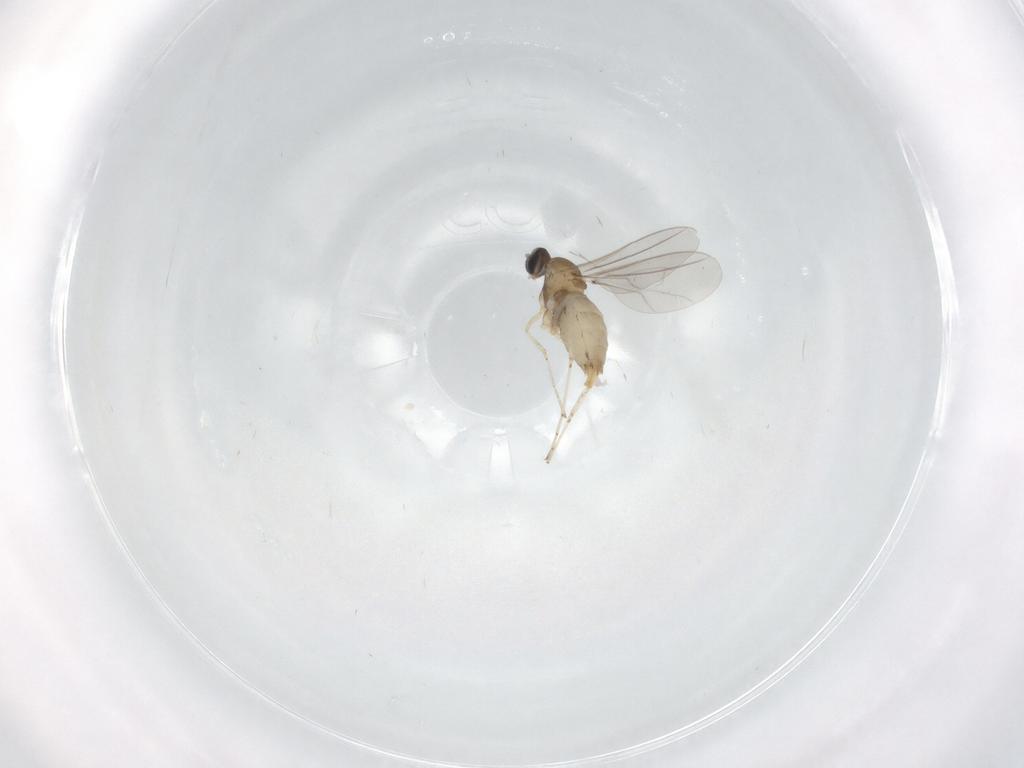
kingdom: Animalia
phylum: Arthropoda
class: Insecta
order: Diptera
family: Cecidomyiidae
